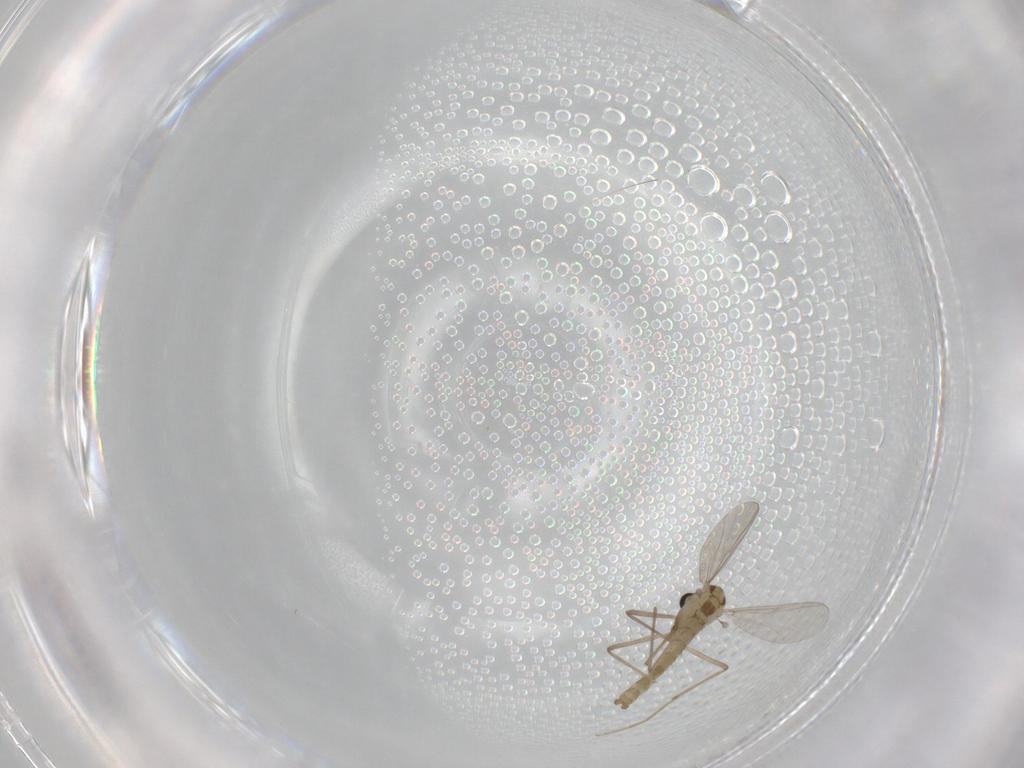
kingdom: Animalia
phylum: Arthropoda
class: Insecta
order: Diptera
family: Chironomidae
